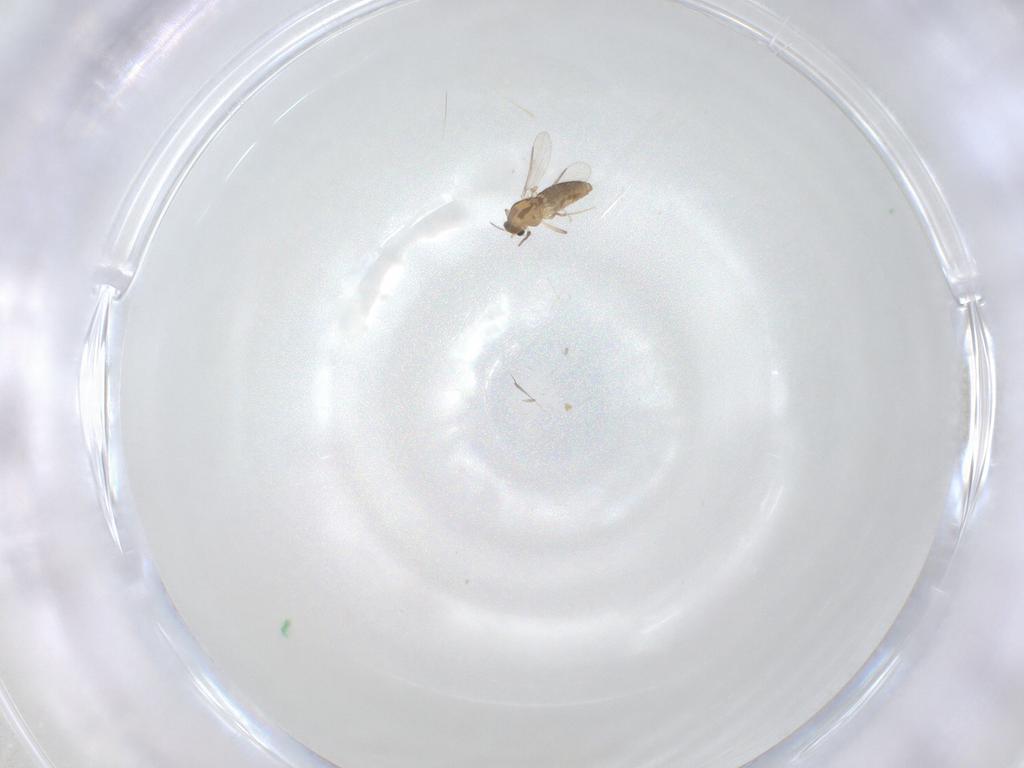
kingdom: Animalia
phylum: Arthropoda
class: Insecta
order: Diptera
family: Chironomidae
